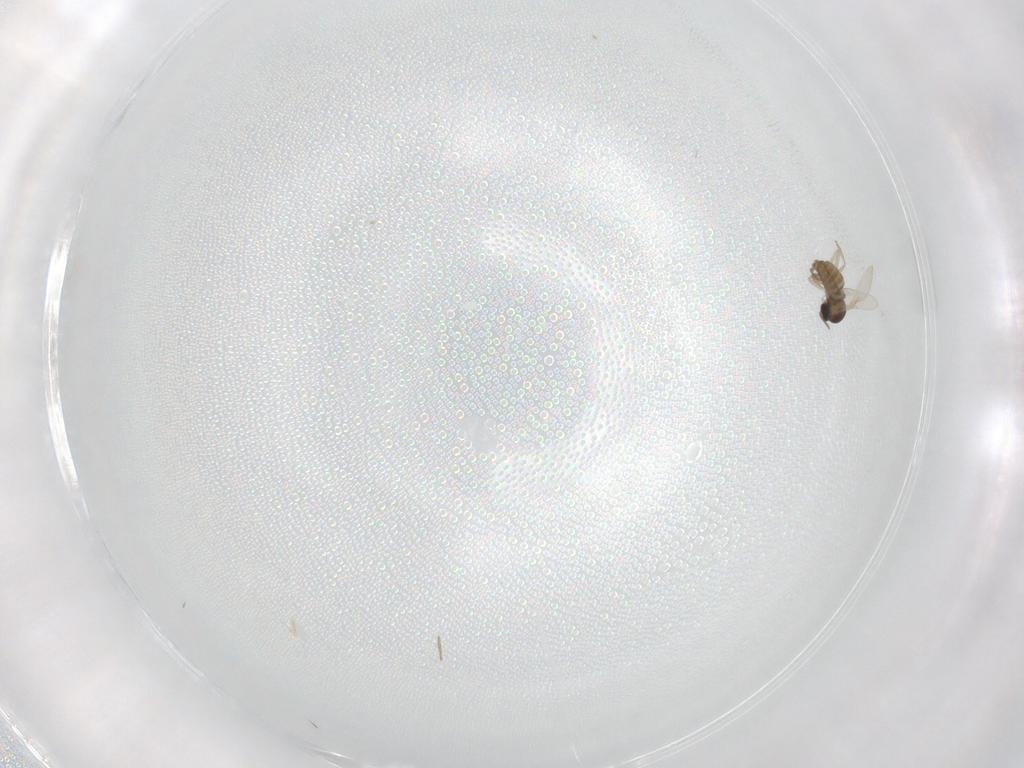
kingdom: Animalia
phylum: Arthropoda
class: Insecta
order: Diptera
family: Cecidomyiidae
